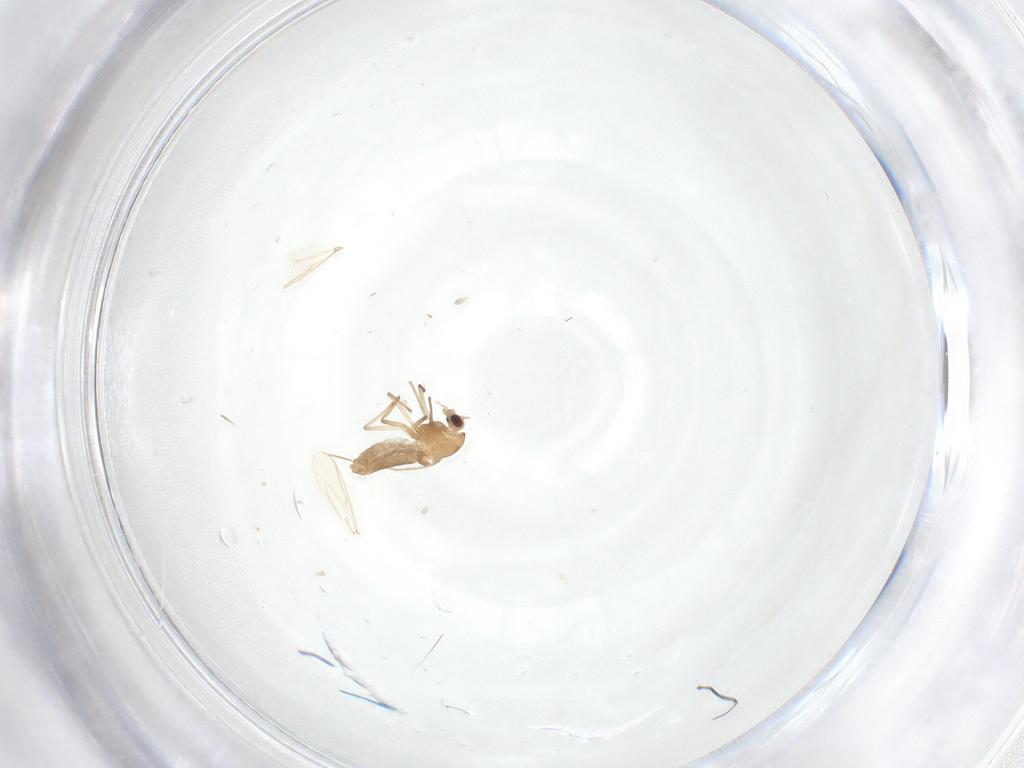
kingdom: Animalia
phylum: Arthropoda
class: Insecta
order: Diptera
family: Chironomidae
